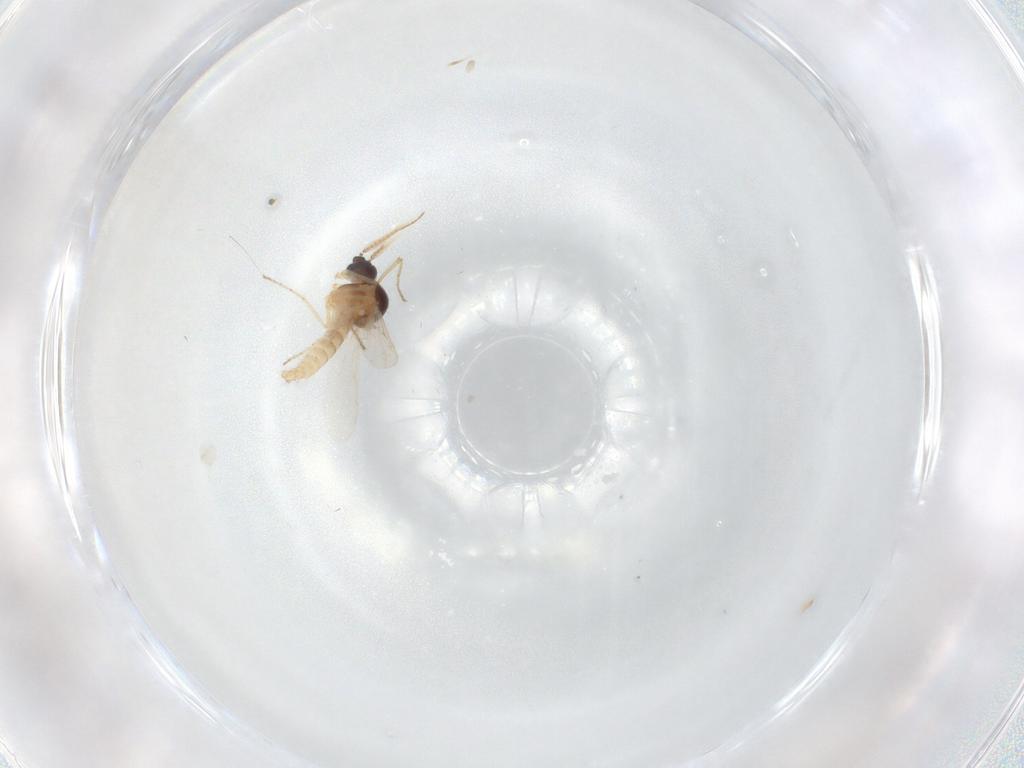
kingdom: Animalia
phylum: Arthropoda
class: Insecta
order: Diptera
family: Ceratopogonidae
